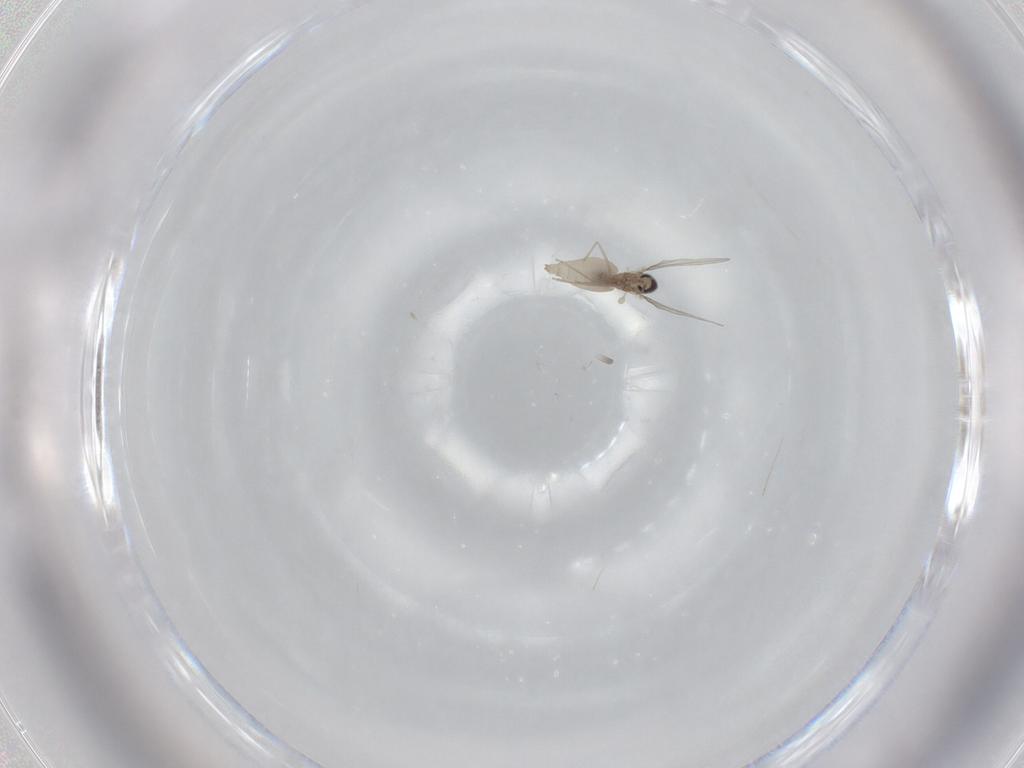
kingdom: Animalia
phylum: Arthropoda
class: Insecta
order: Diptera
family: Cecidomyiidae
